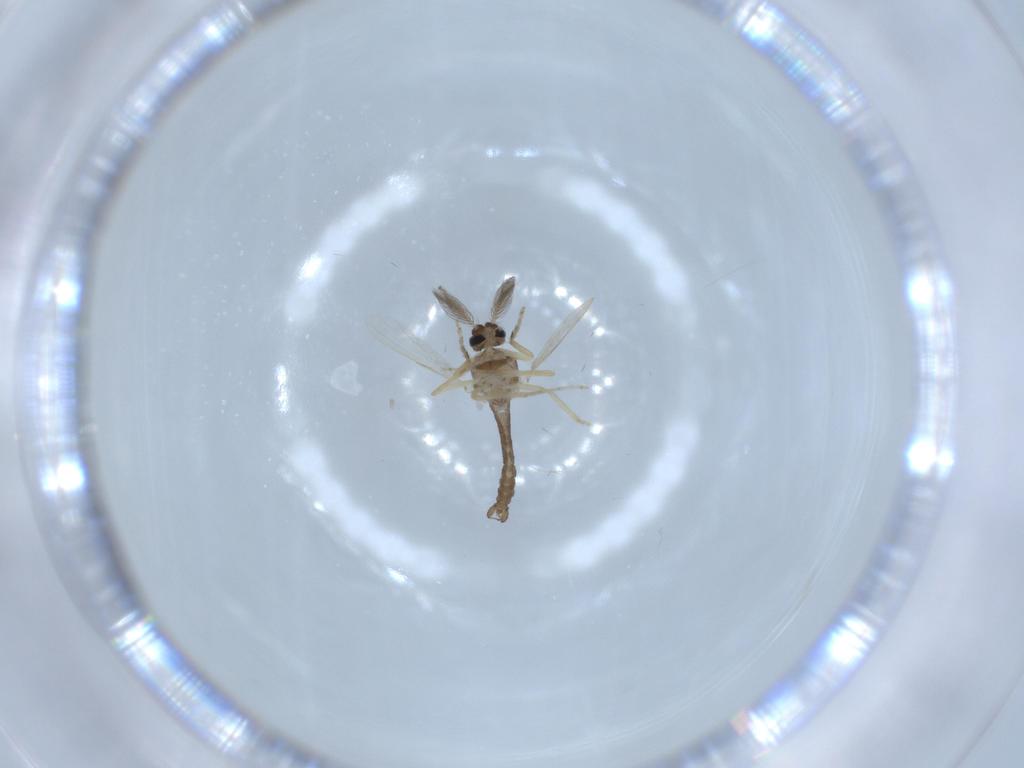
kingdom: Animalia
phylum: Arthropoda
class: Insecta
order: Diptera
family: Ceratopogonidae
